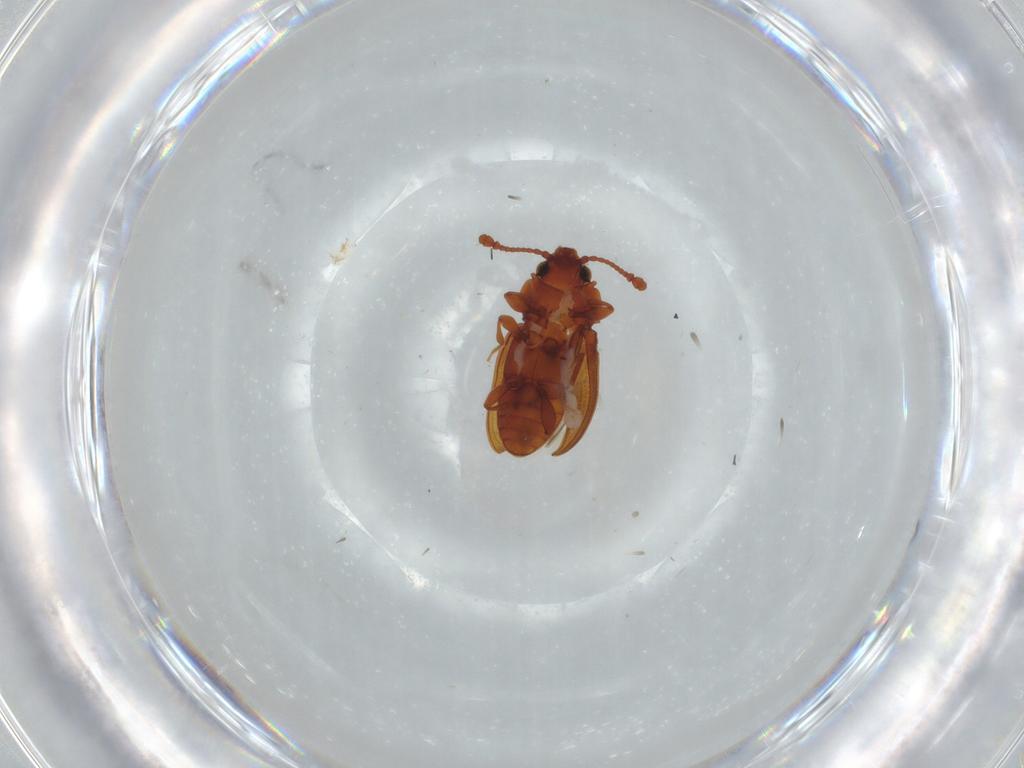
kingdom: Animalia
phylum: Arthropoda
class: Insecta
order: Coleoptera
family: Silvanidae
